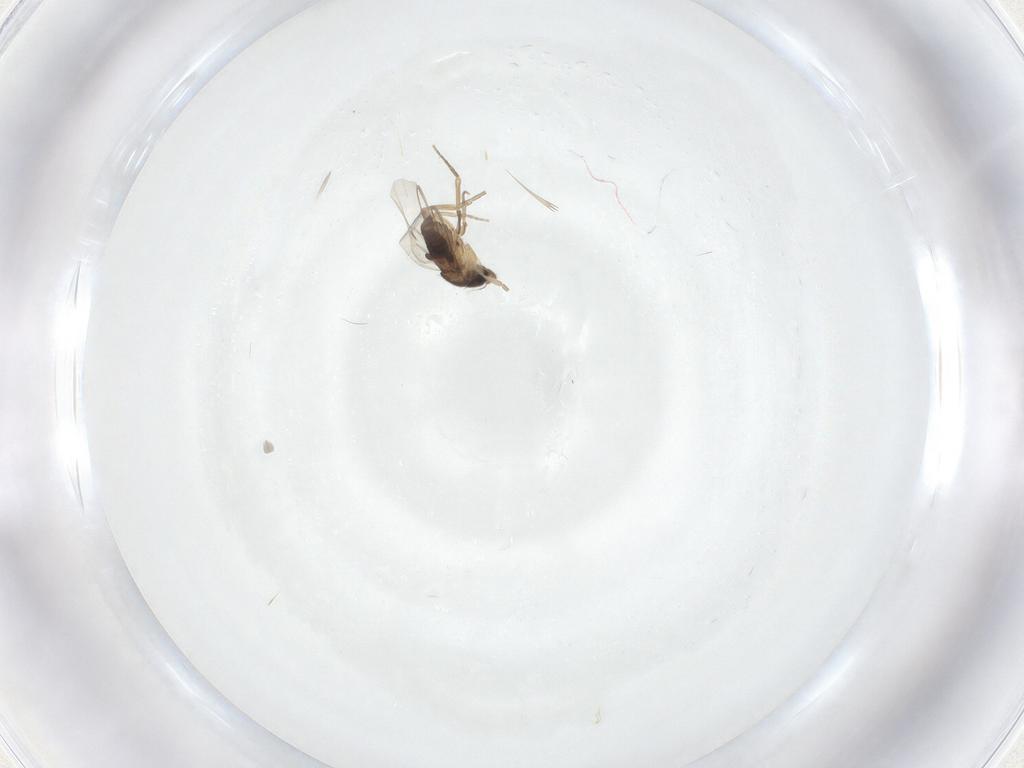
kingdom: Animalia
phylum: Arthropoda
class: Insecta
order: Diptera
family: Phoridae
